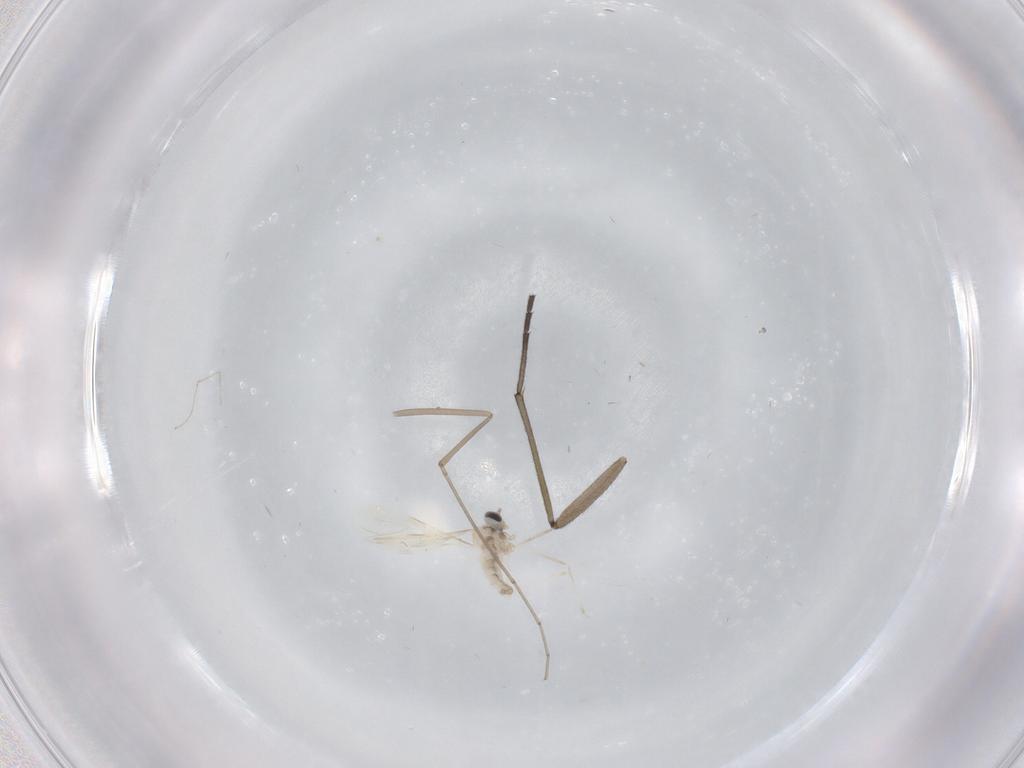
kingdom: Animalia
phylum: Arthropoda
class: Insecta
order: Diptera
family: Cecidomyiidae
